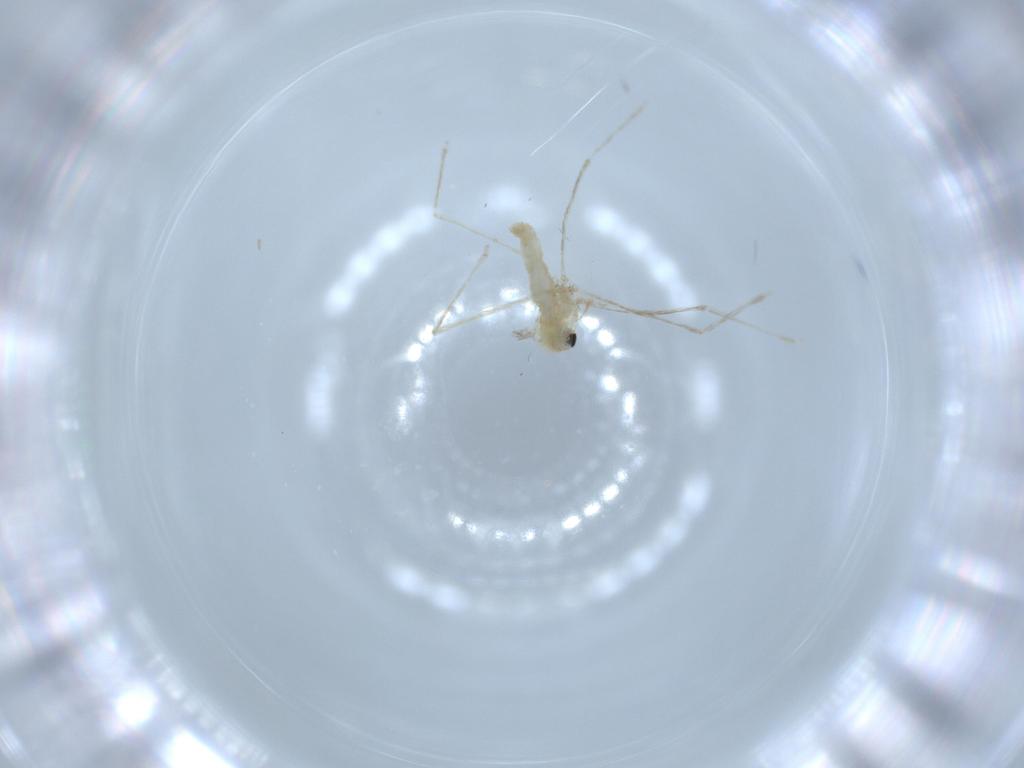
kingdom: Animalia
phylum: Arthropoda
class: Insecta
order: Diptera
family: Cecidomyiidae
